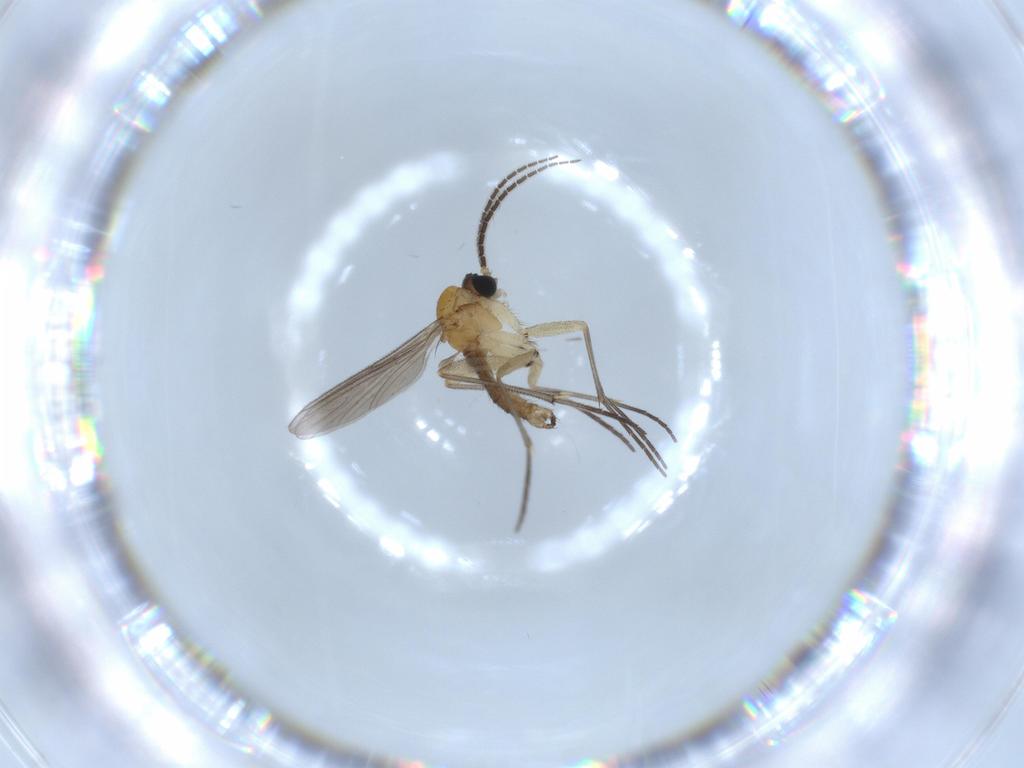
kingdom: Animalia
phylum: Arthropoda
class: Insecta
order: Diptera
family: Sciaridae
